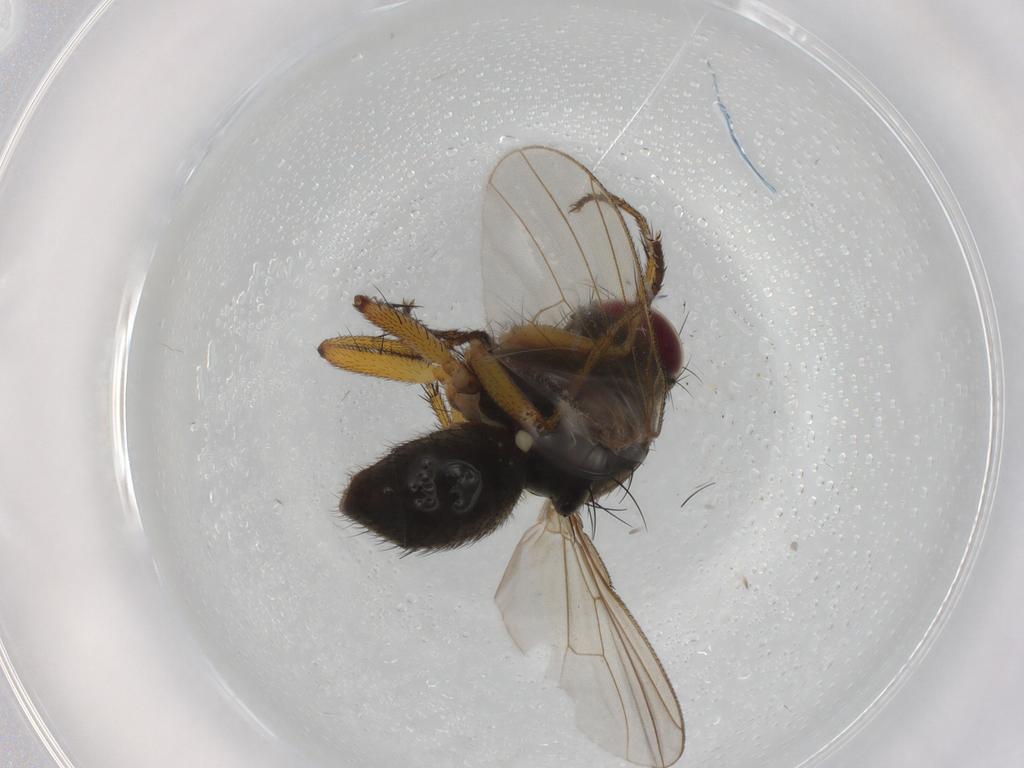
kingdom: Animalia
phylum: Arthropoda
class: Insecta
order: Diptera
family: Muscidae
